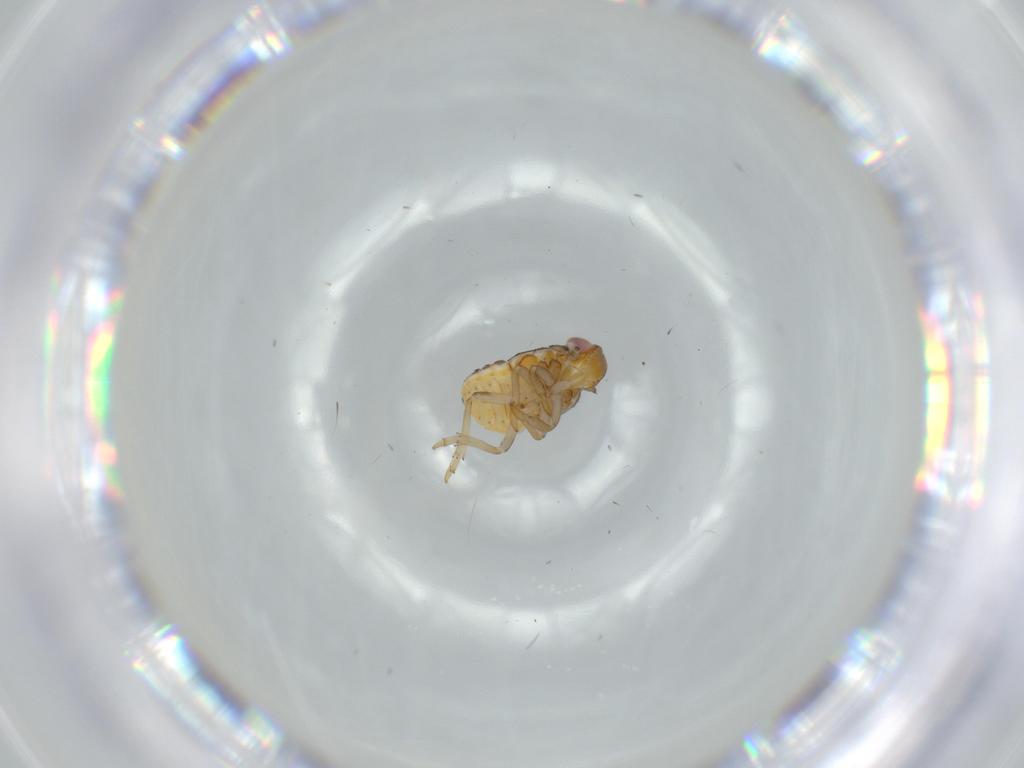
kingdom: Animalia
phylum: Arthropoda
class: Insecta
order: Hemiptera
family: Issidae
